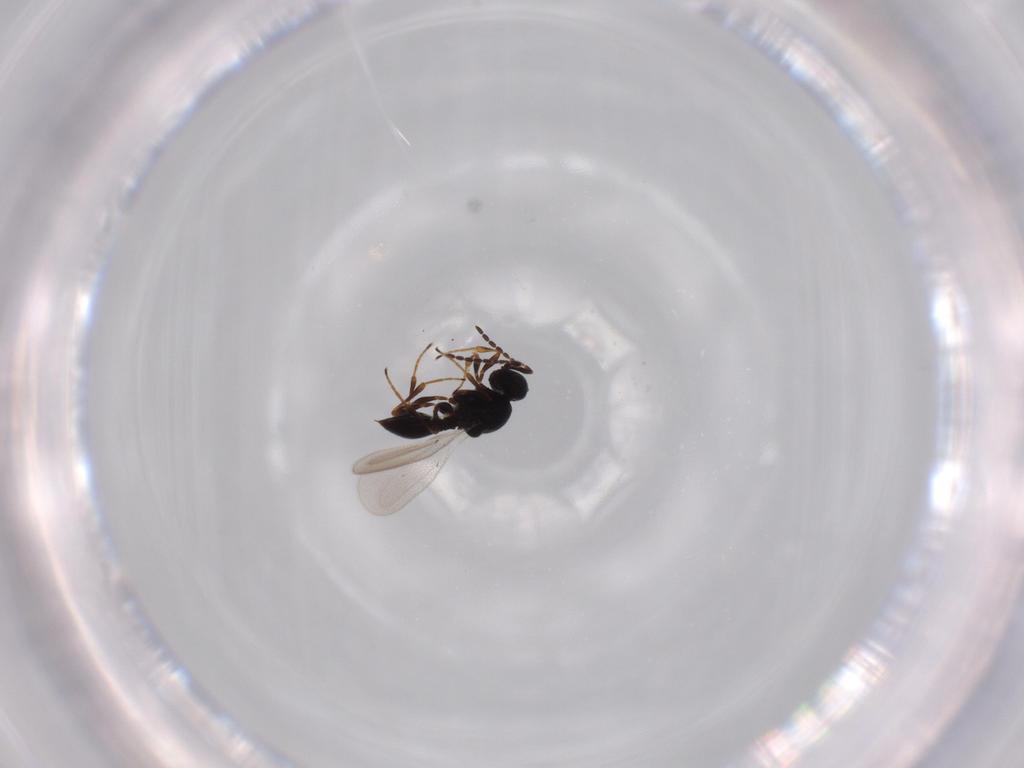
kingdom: Animalia
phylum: Arthropoda
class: Insecta
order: Hymenoptera
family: Platygastridae
